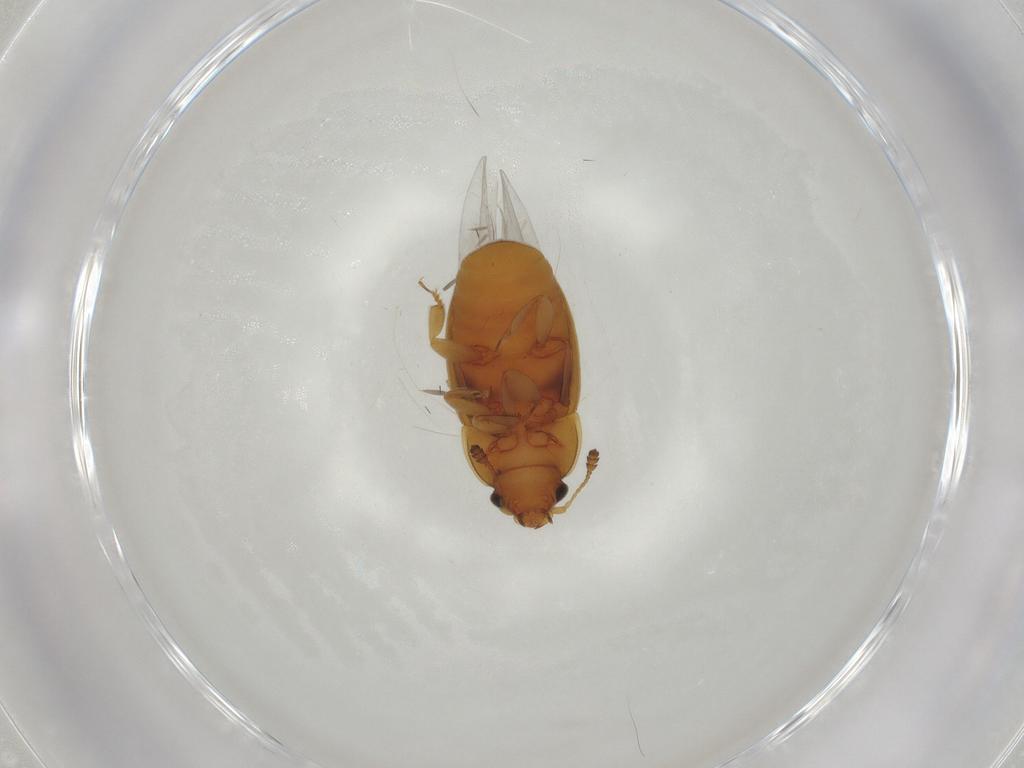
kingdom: Animalia
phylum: Arthropoda
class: Insecta
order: Coleoptera
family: Nitidulidae
